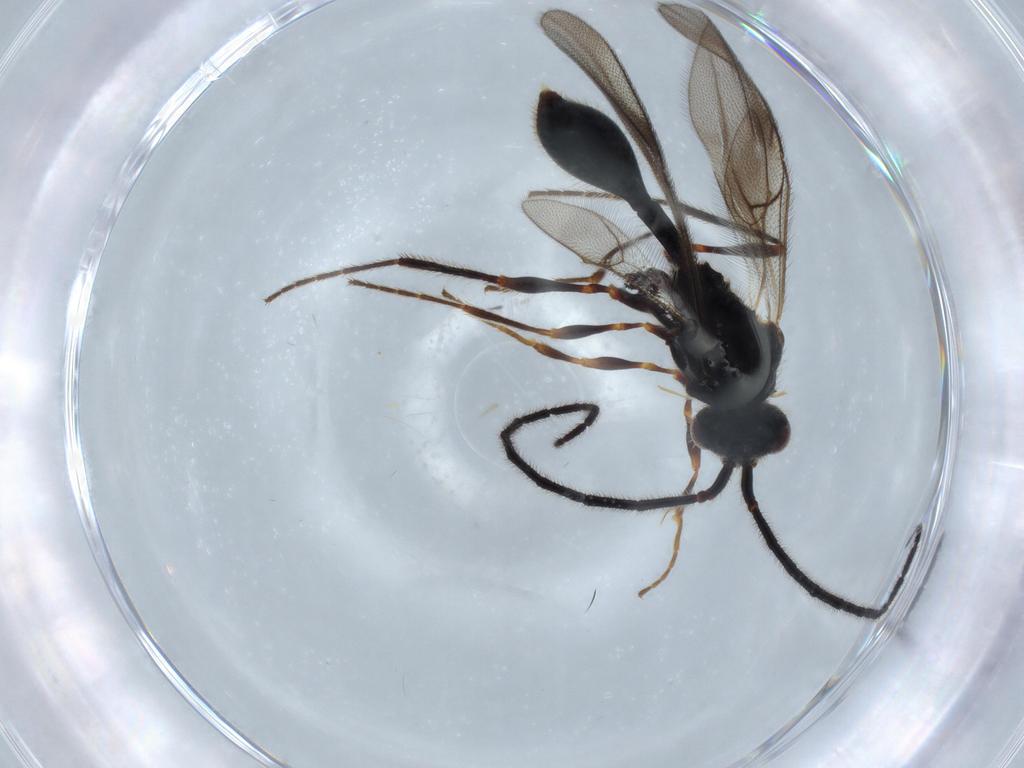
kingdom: Animalia
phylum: Arthropoda
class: Insecta
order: Hymenoptera
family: Diapriidae
